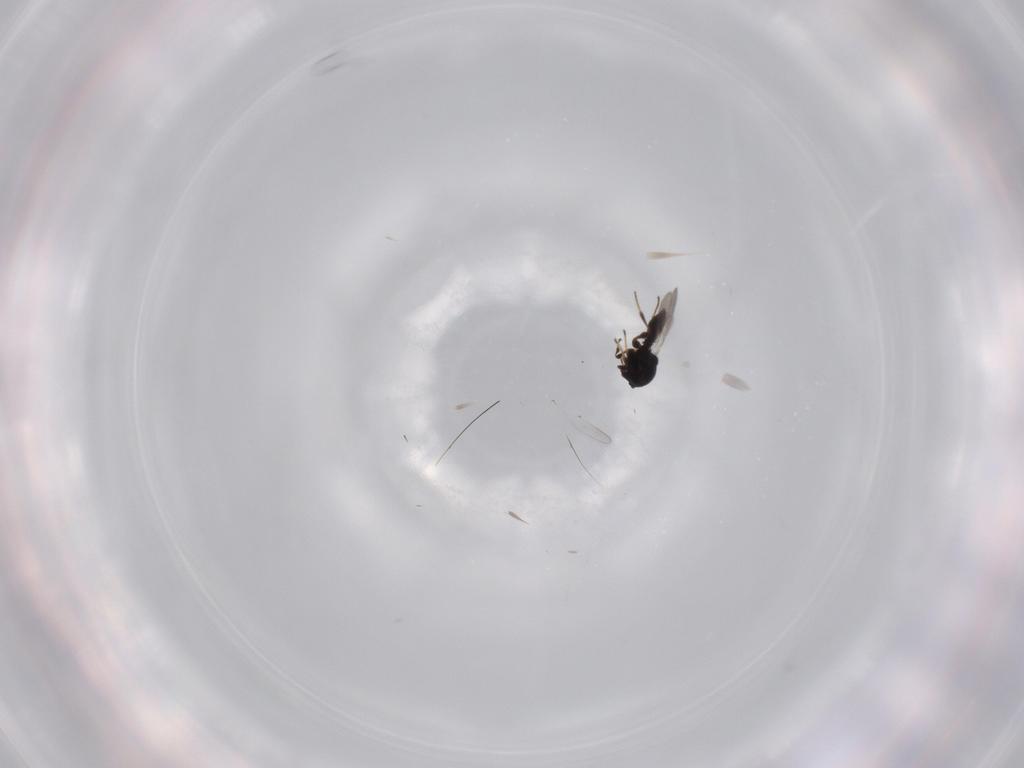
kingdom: Animalia
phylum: Arthropoda
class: Insecta
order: Hymenoptera
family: Platygastridae
